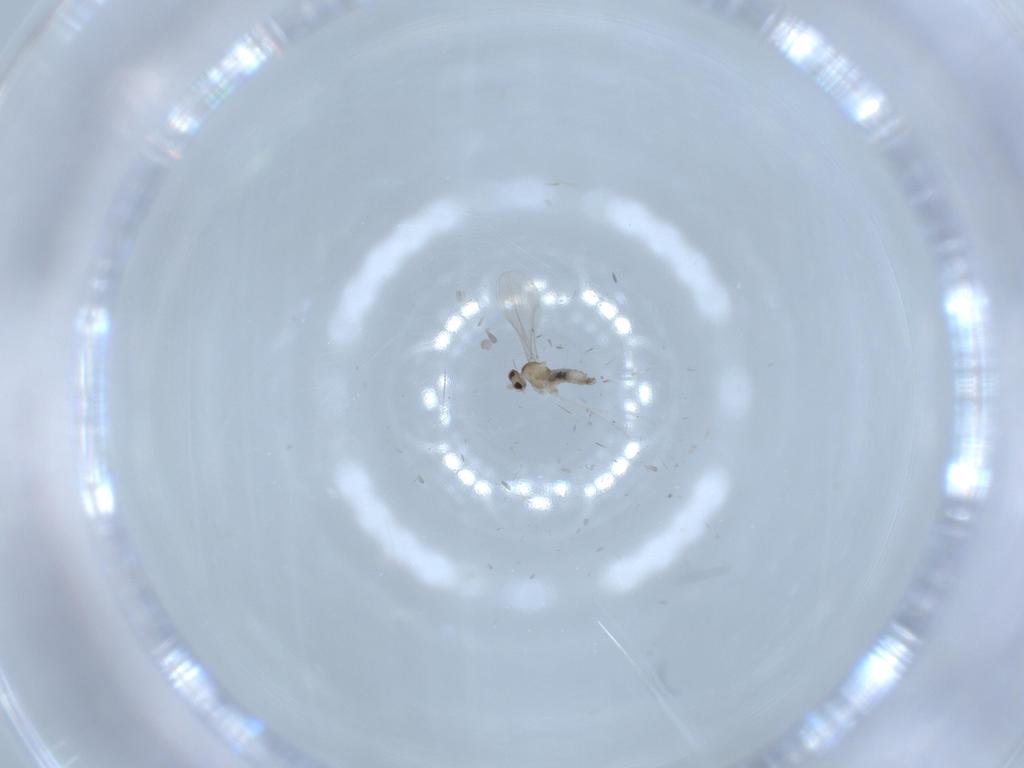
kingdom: Animalia
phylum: Arthropoda
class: Insecta
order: Diptera
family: Cecidomyiidae
